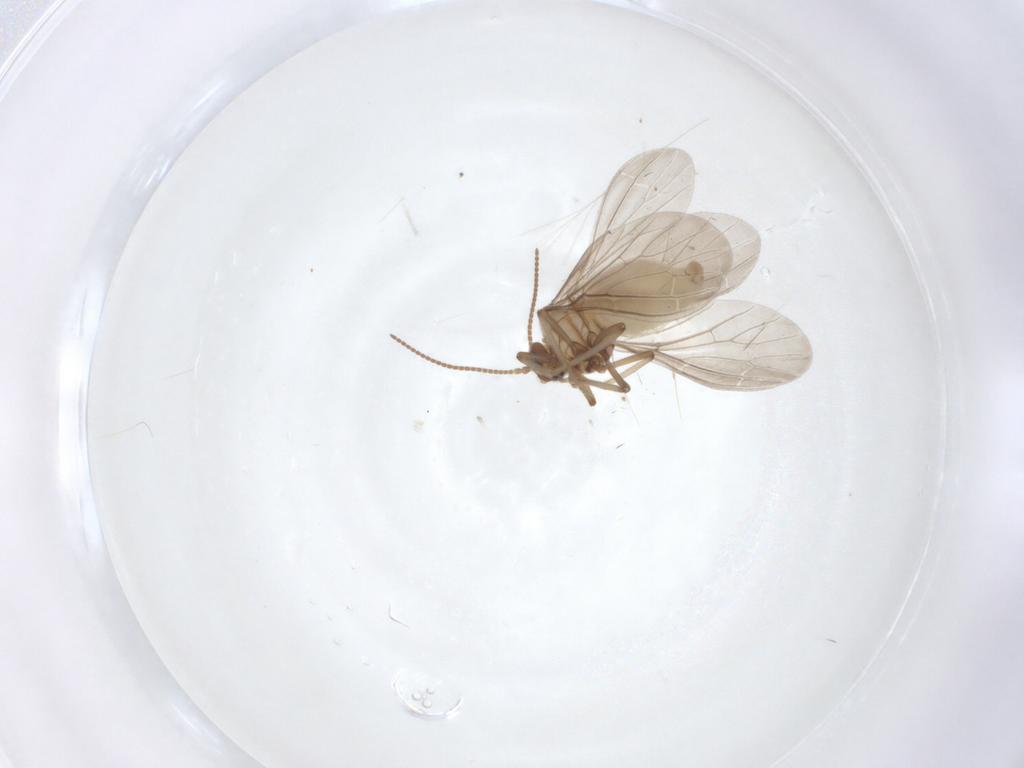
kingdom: Animalia
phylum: Arthropoda
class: Insecta
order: Neuroptera
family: Coniopterygidae
